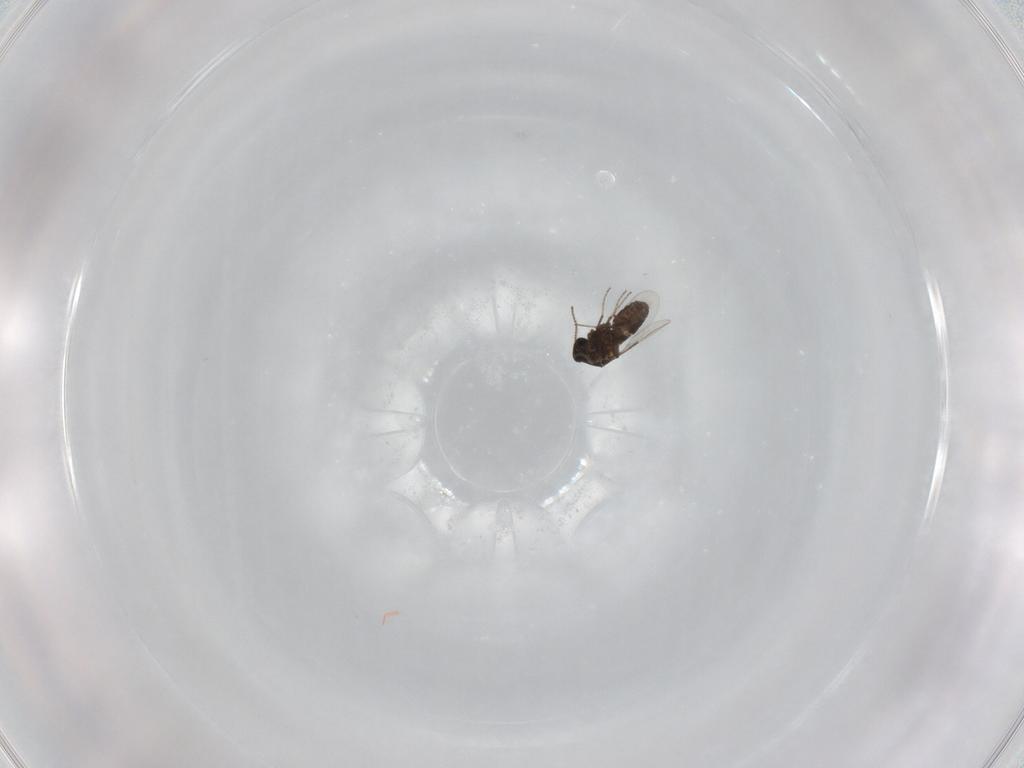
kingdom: Animalia
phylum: Arthropoda
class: Insecta
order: Diptera
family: Ceratopogonidae
